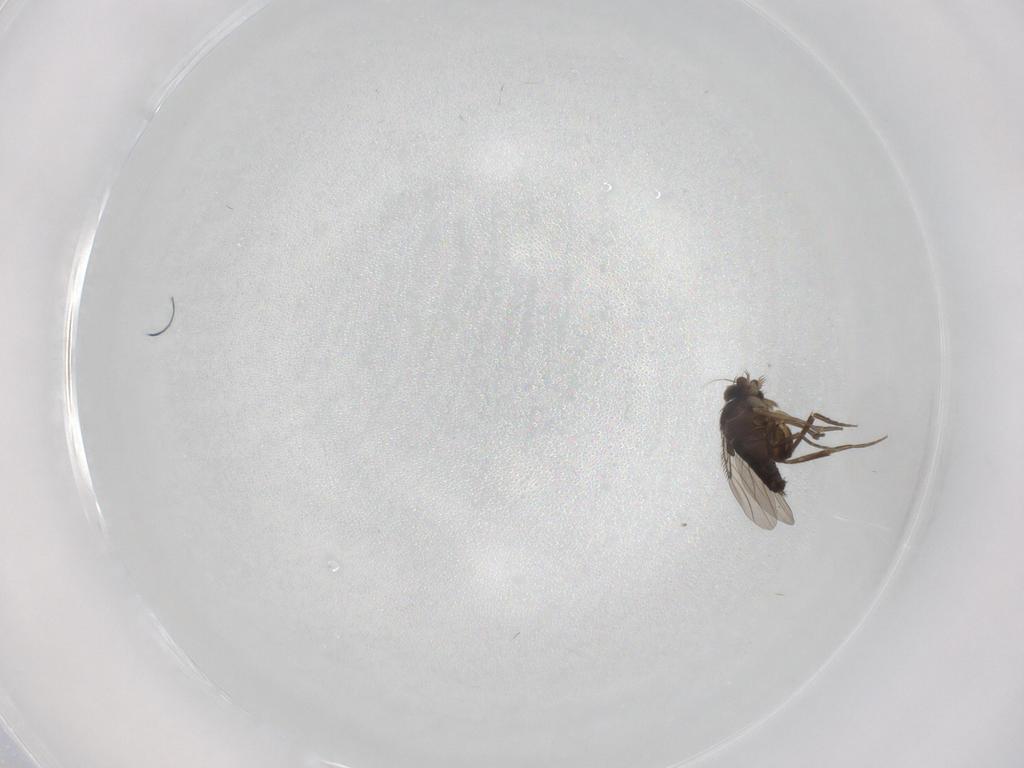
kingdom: Animalia
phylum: Arthropoda
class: Insecta
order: Diptera
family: Phoridae
